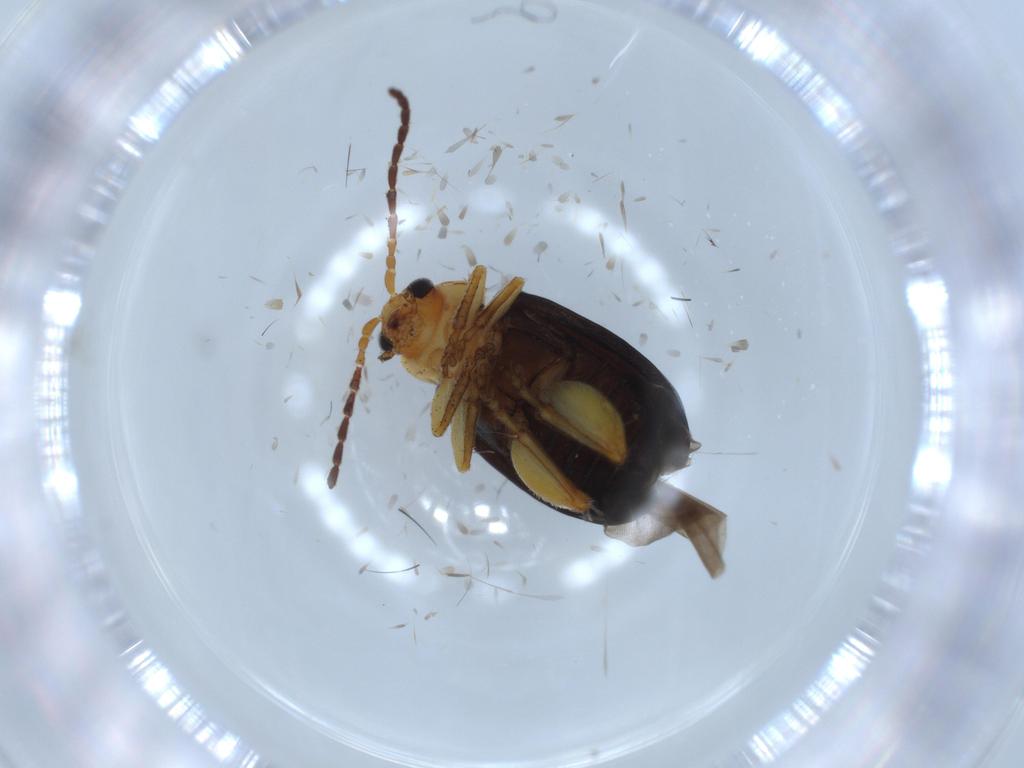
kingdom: Animalia
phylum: Arthropoda
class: Insecta
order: Coleoptera
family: Chrysomelidae
